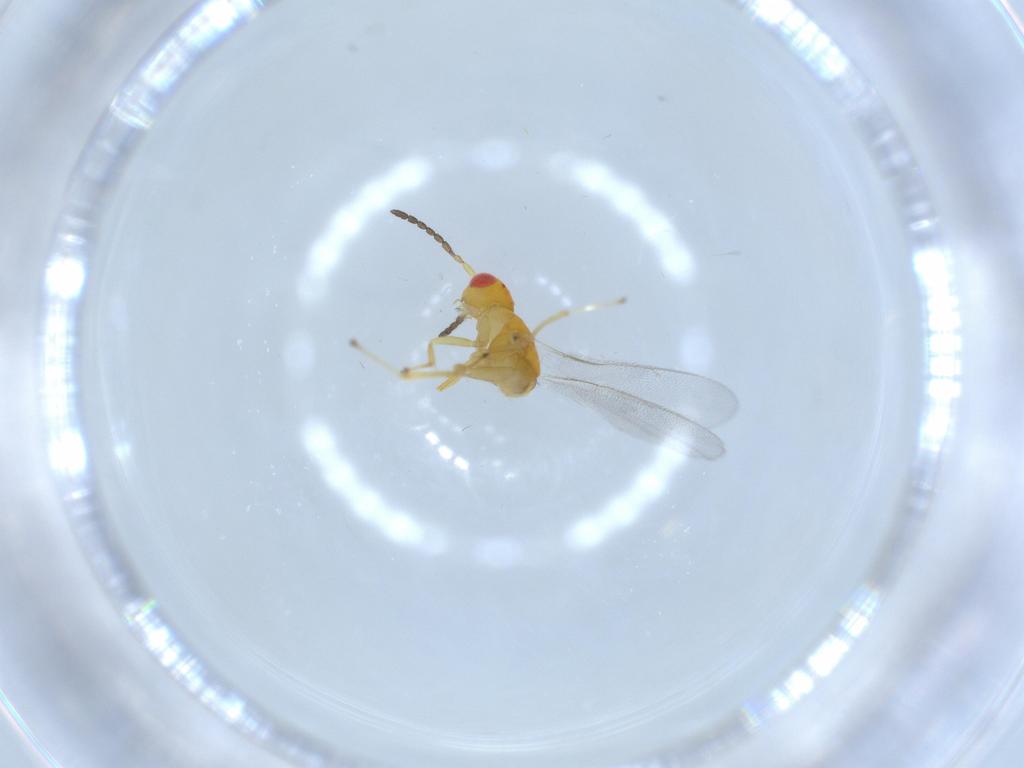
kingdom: Animalia
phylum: Arthropoda
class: Insecta
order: Hymenoptera
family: Pteromalidae
